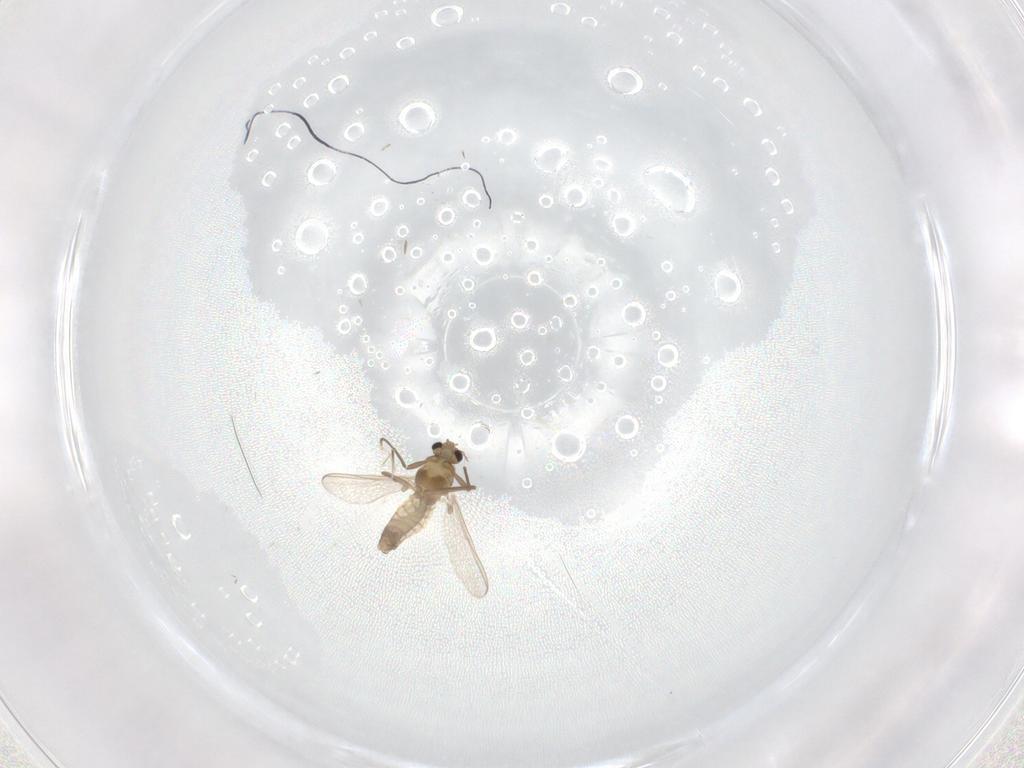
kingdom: Animalia
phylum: Arthropoda
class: Insecta
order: Diptera
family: Chironomidae
